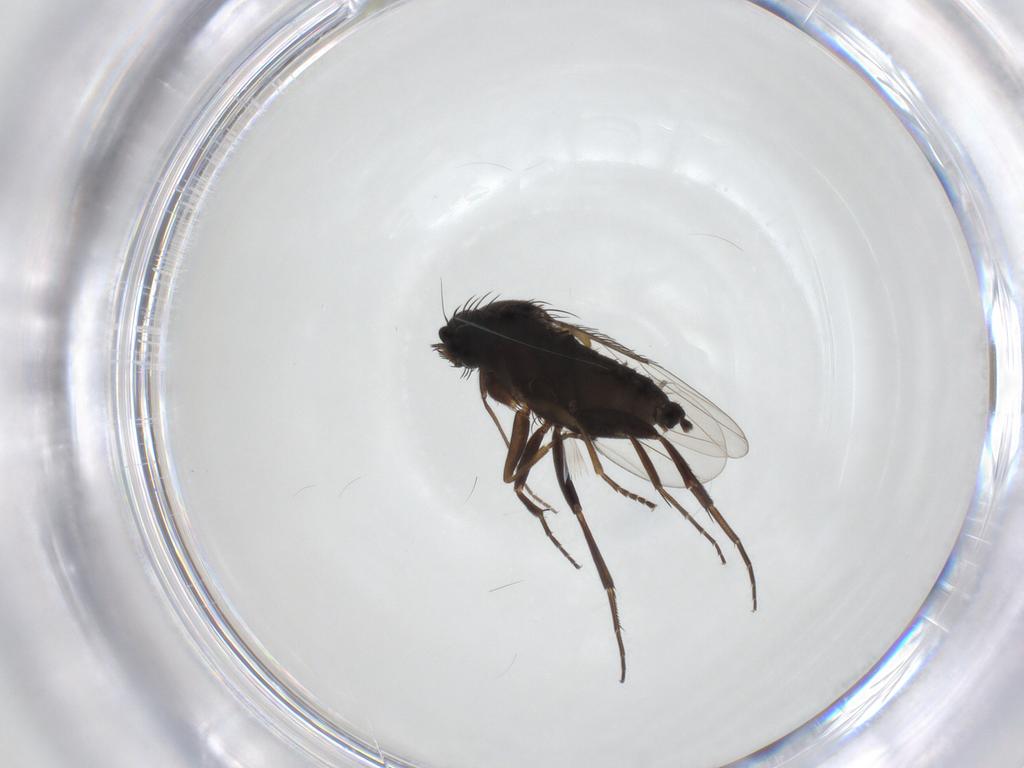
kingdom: Animalia
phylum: Arthropoda
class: Insecta
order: Diptera
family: Phoridae
